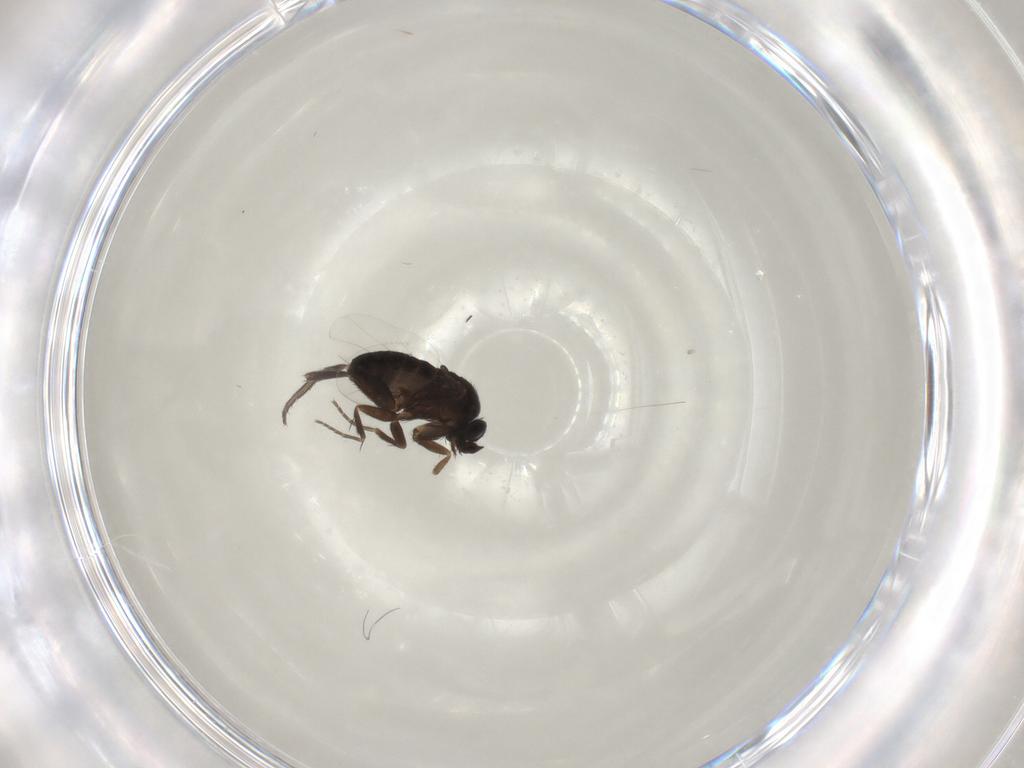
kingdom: Animalia
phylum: Arthropoda
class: Insecta
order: Diptera
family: Phoridae
